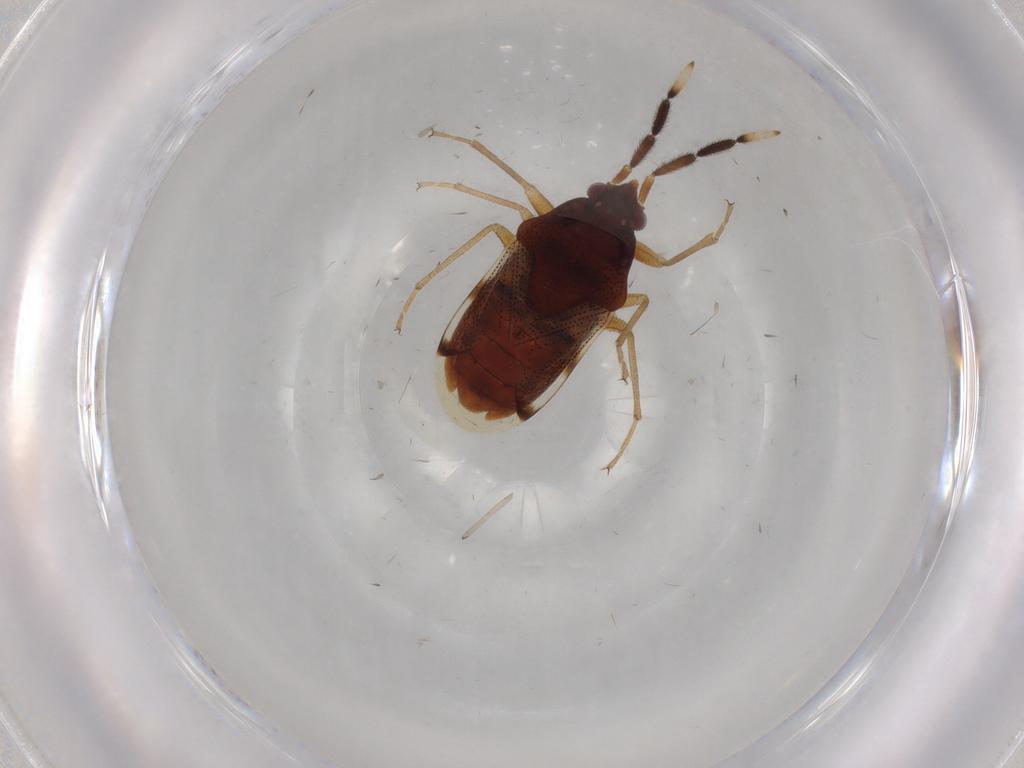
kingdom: Animalia
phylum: Arthropoda
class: Insecta
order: Hemiptera
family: Rhyparochromidae
